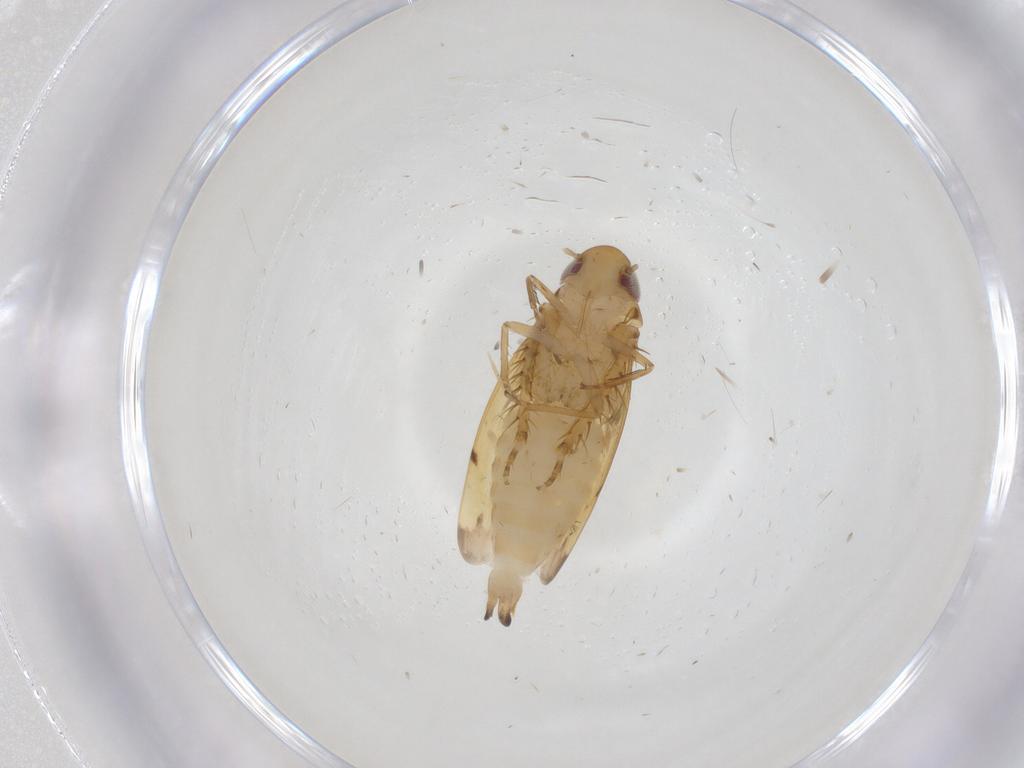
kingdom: Animalia
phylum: Arthropoda
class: Insecta
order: Hemiptera
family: Cicadellidae
